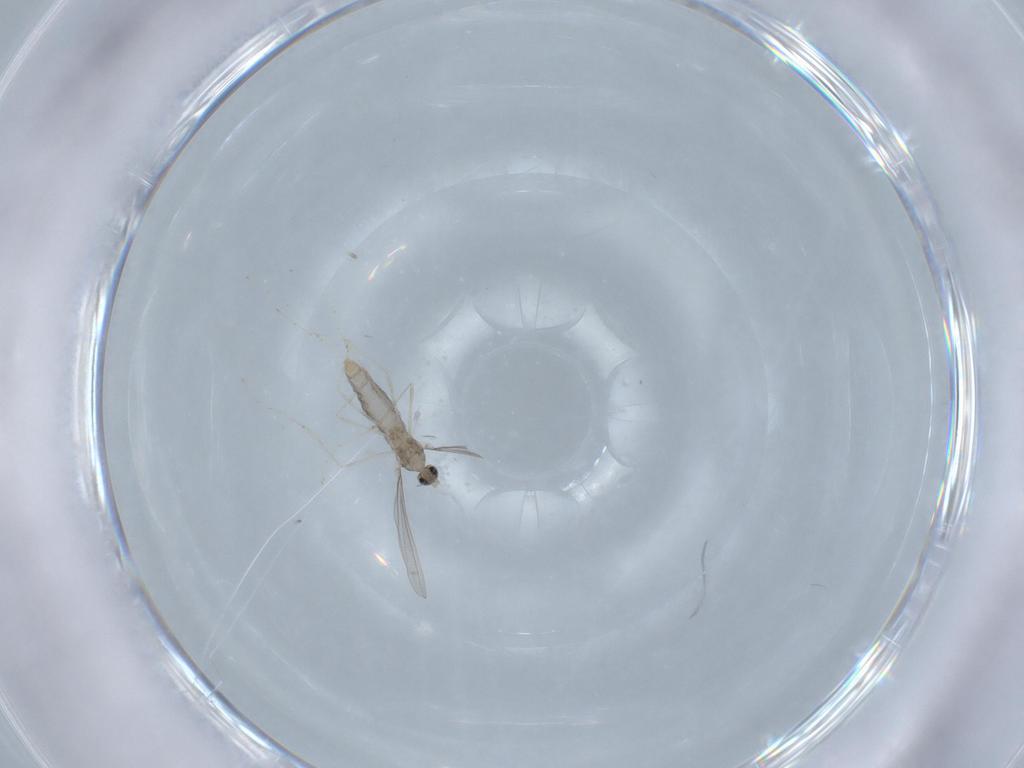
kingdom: Animalia
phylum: Arthropoda
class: Insecta
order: Diptera
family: Cecidomyiidae
